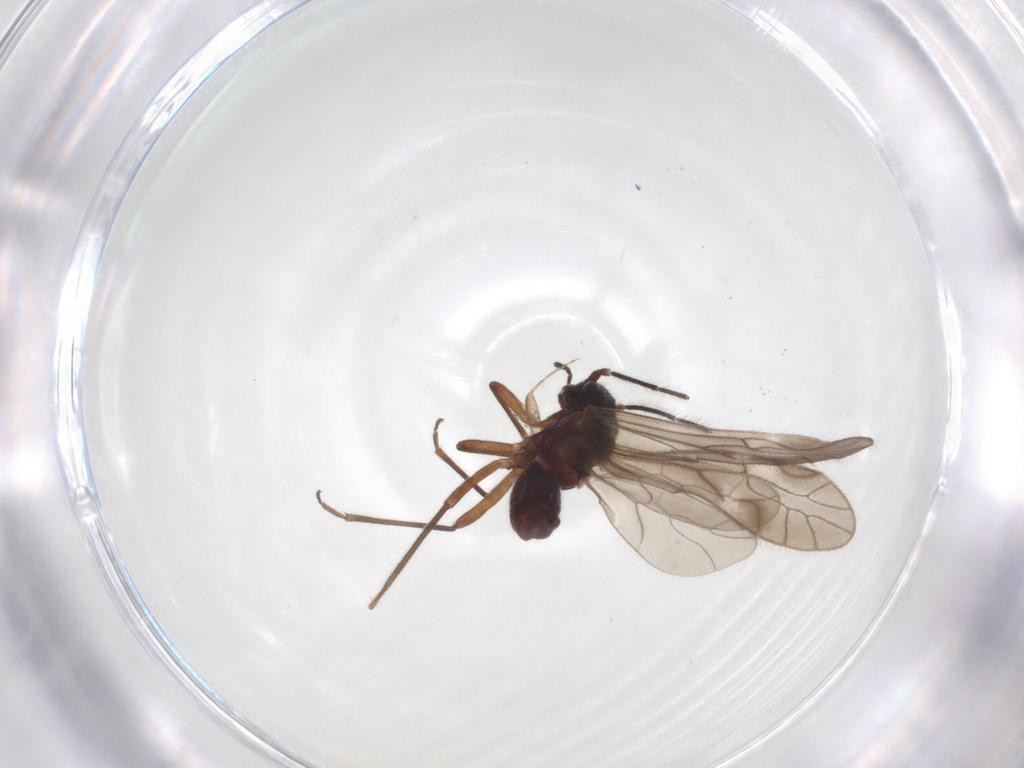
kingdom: Animalia
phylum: Arthropoda
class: Insecta
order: Psocodea
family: Trichopsocidae
